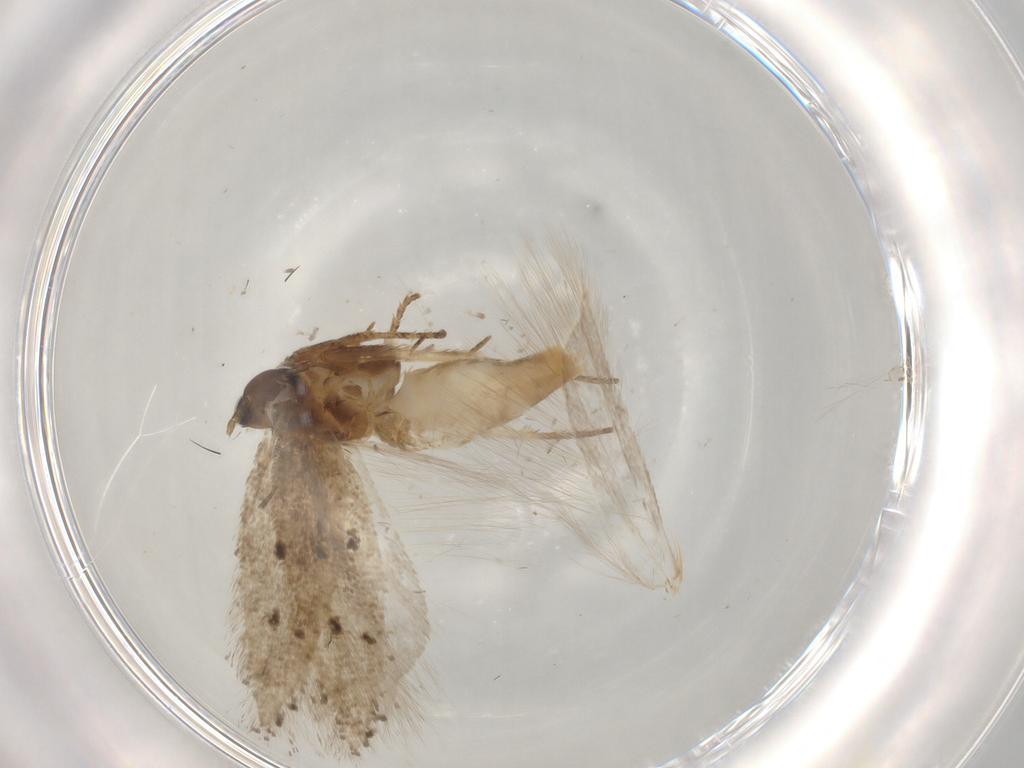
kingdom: Animalia
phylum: Arthropoda
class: Insecta
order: Lepidoptera
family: Gelechiidae
